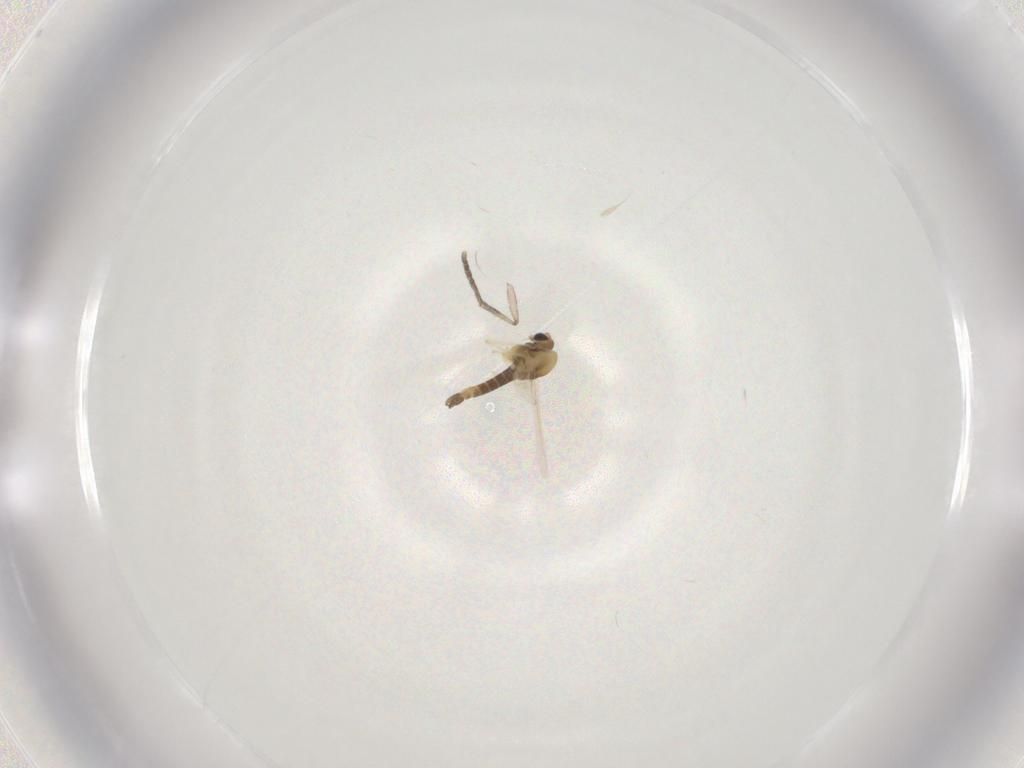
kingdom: Animalia
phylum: Arthropoda
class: Insecta
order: Diptera
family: Chironomidae
